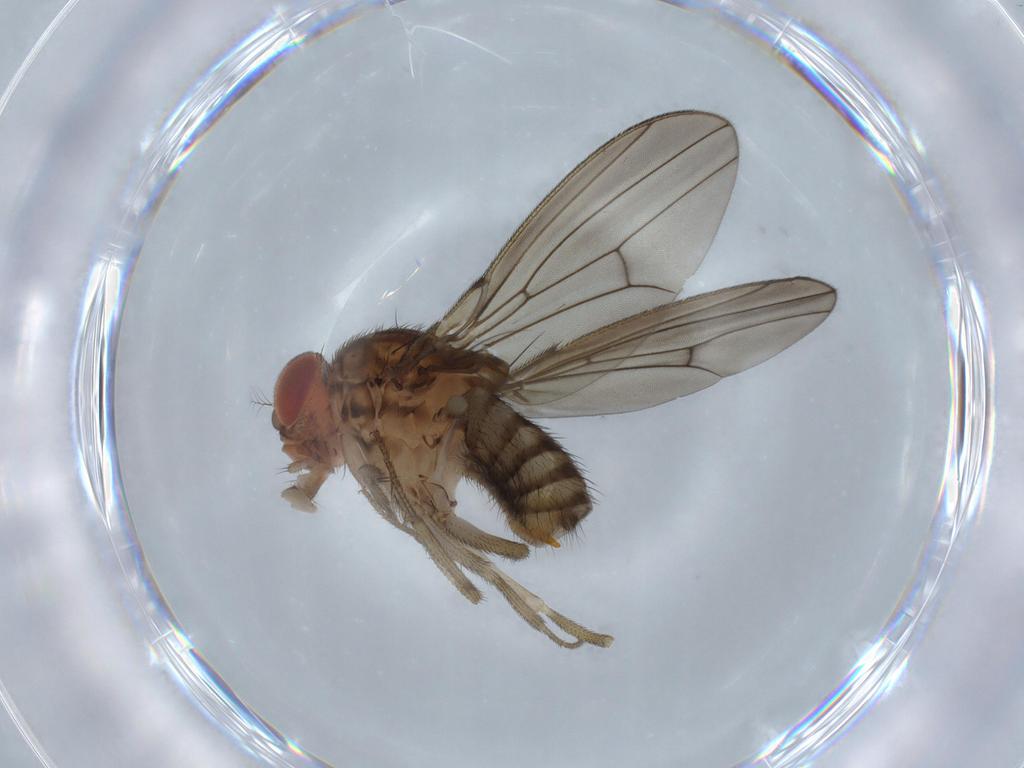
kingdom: Animalia
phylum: Arthropoda
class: Insecta
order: Diptera
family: Drosophilidae
